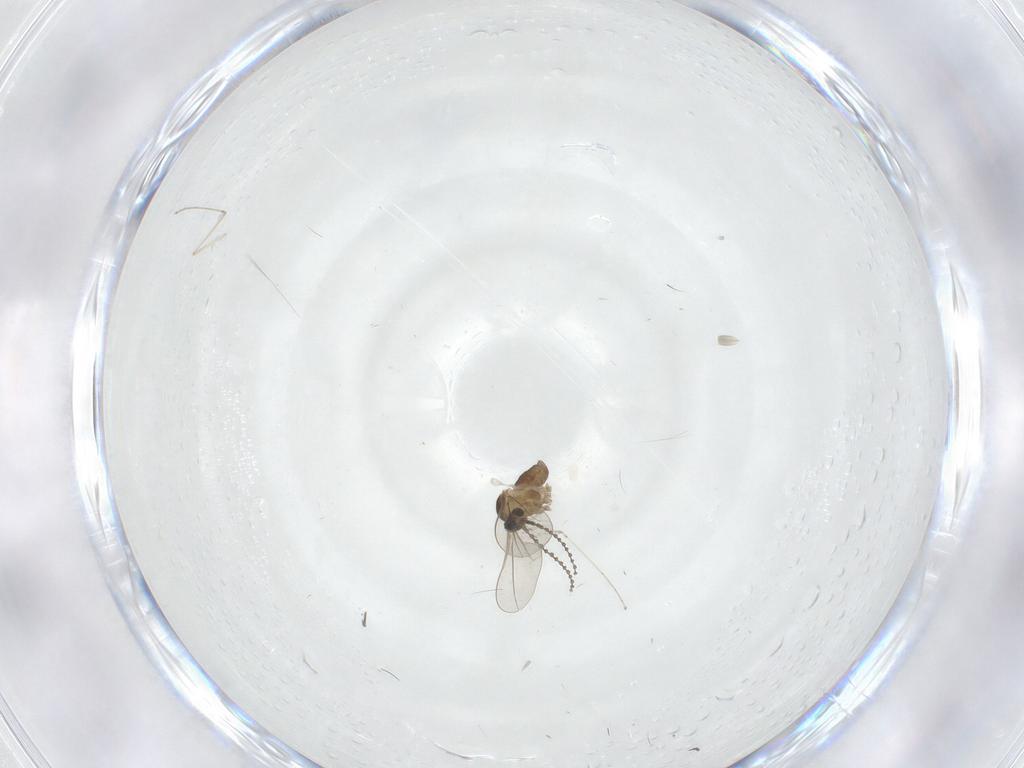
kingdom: Animalia
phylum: Arthropoda
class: Insecta
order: Diptera
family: Cecidomyiidae
